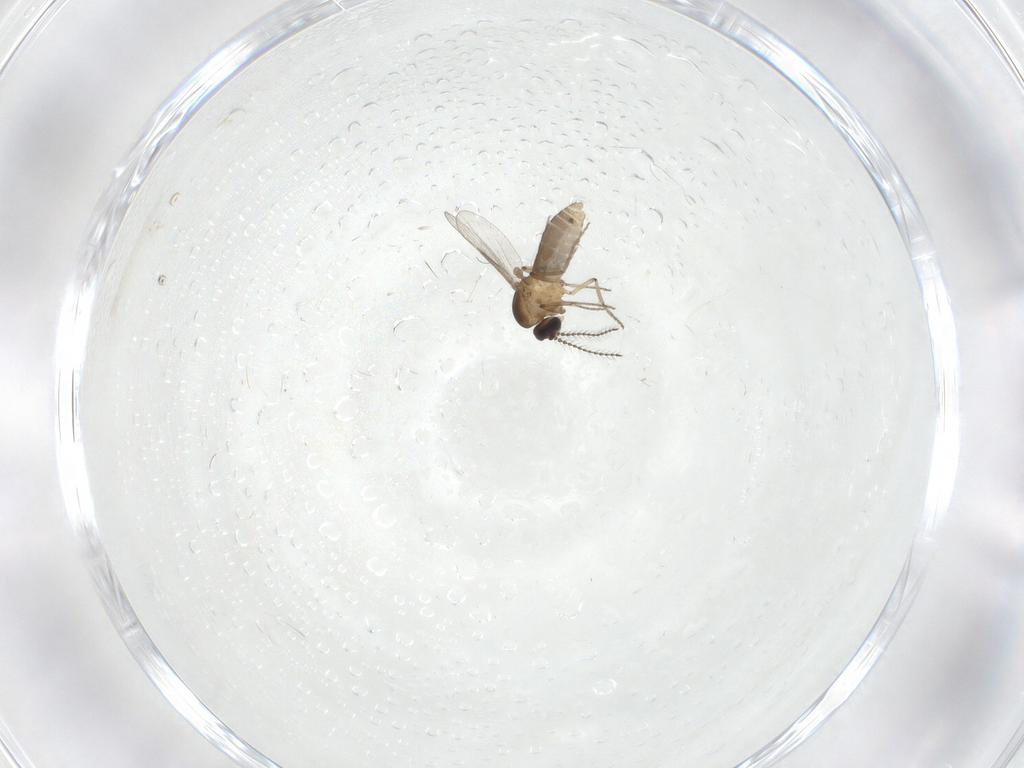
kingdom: Animalia
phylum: Arthropoda
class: Insecta
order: Diptera
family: Ceratopogonidae
